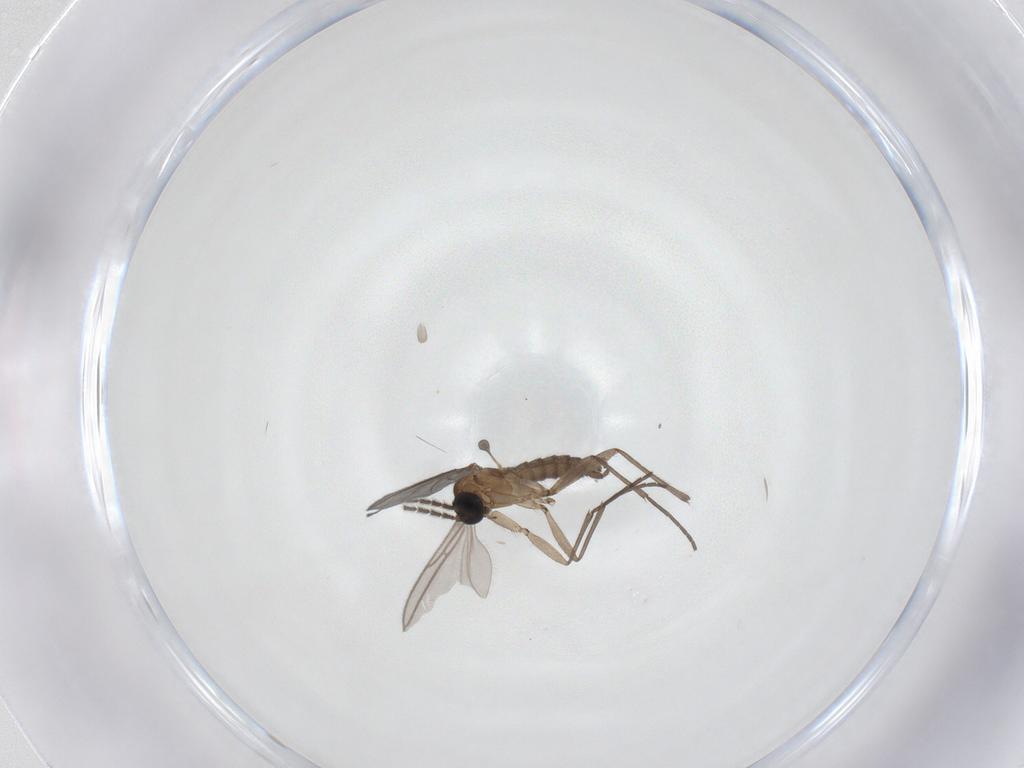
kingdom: Animalia
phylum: Arthropoda
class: Insecta
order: Diptera
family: Sciaridae
